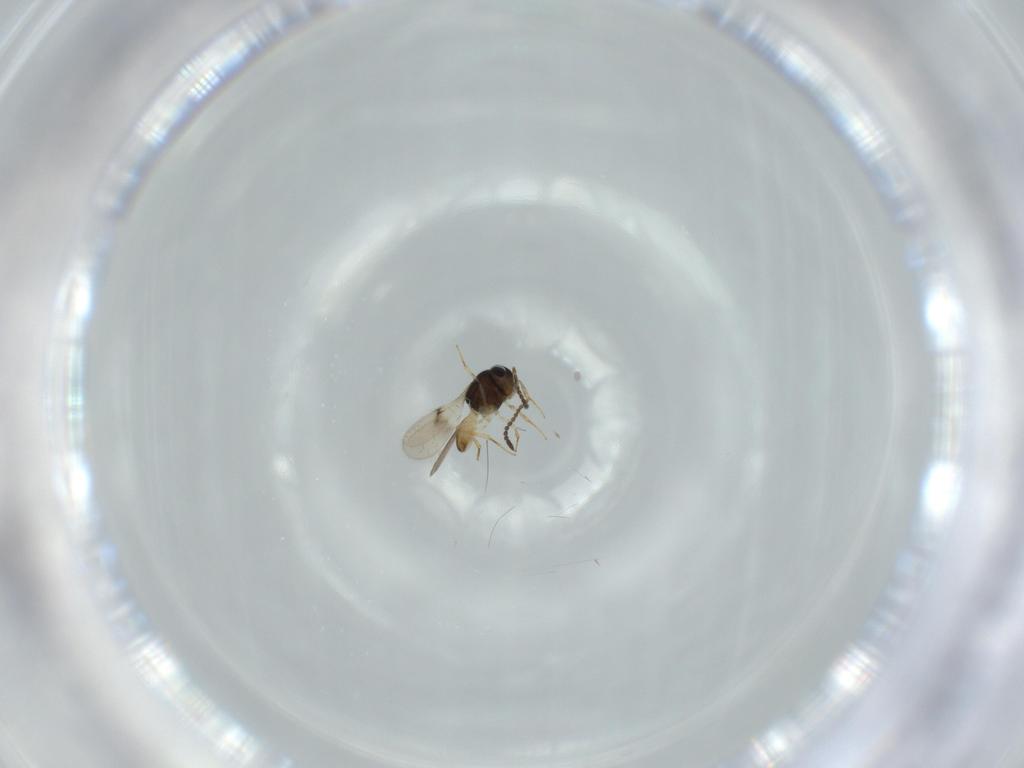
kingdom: Animalia
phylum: Arthropoda
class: Insecta
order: Hymenoptera
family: Scelionidae
